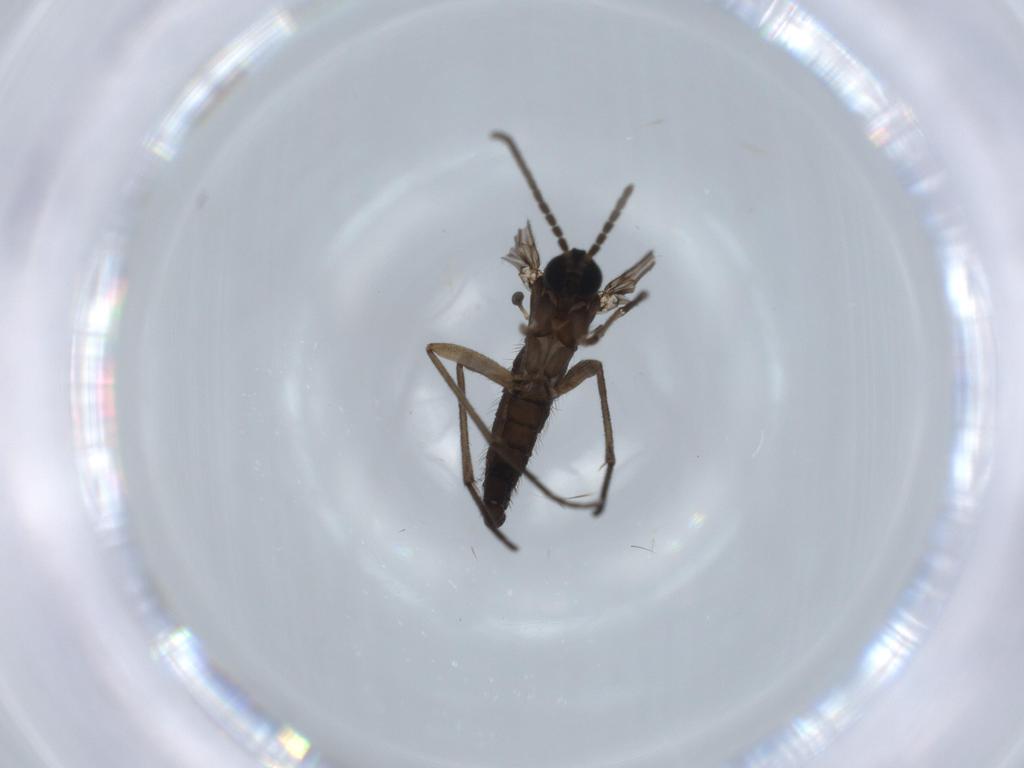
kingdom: Animalia
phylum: Arthropoda
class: Insecta
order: Diptera
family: Sciaridae
